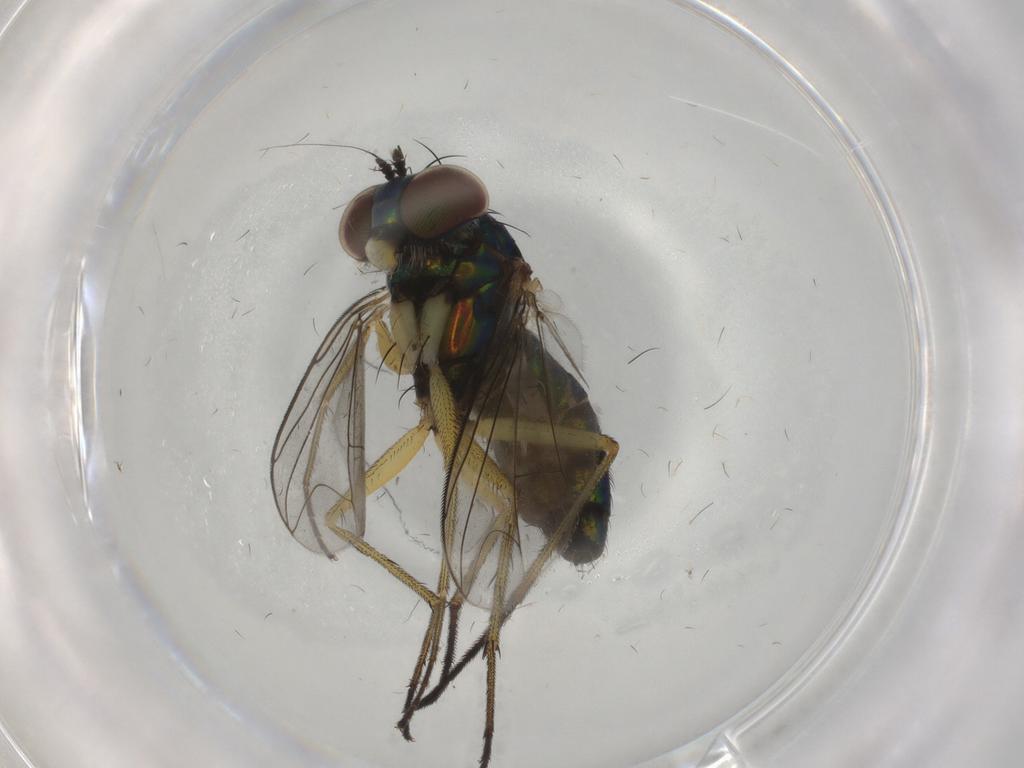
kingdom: Animalia
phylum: Arthropoda
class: Insecta
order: Diptera
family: Dolichopodidae
